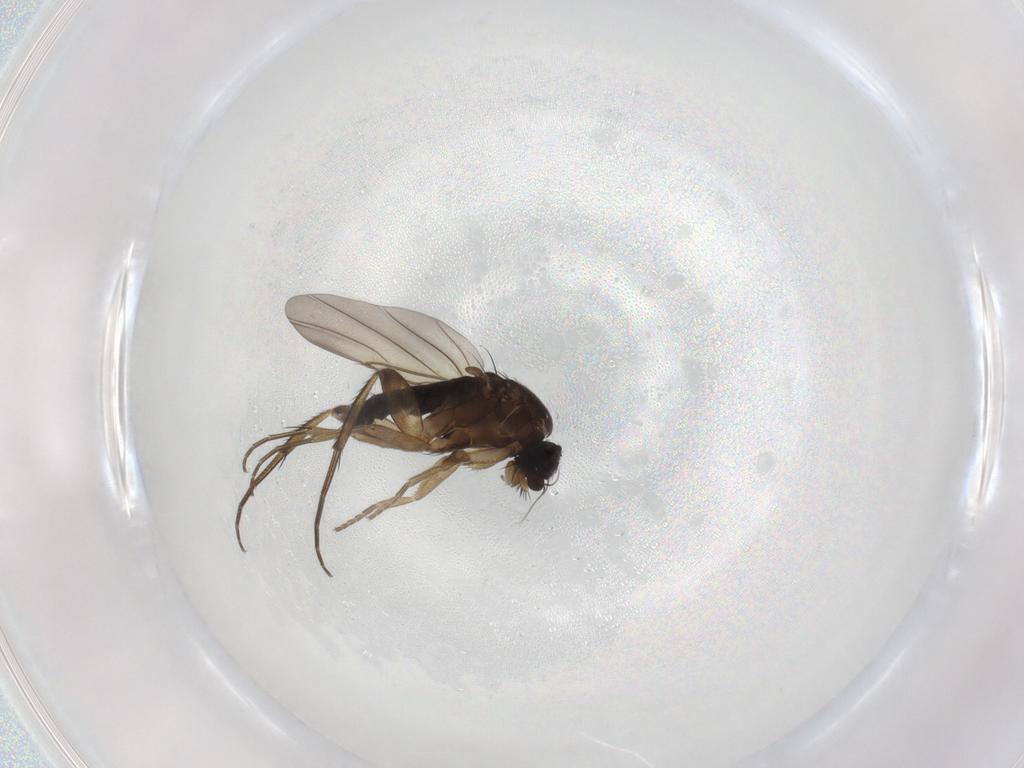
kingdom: Animalia
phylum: Arthropoda
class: Insecta
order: Diptera
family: Phoridae
